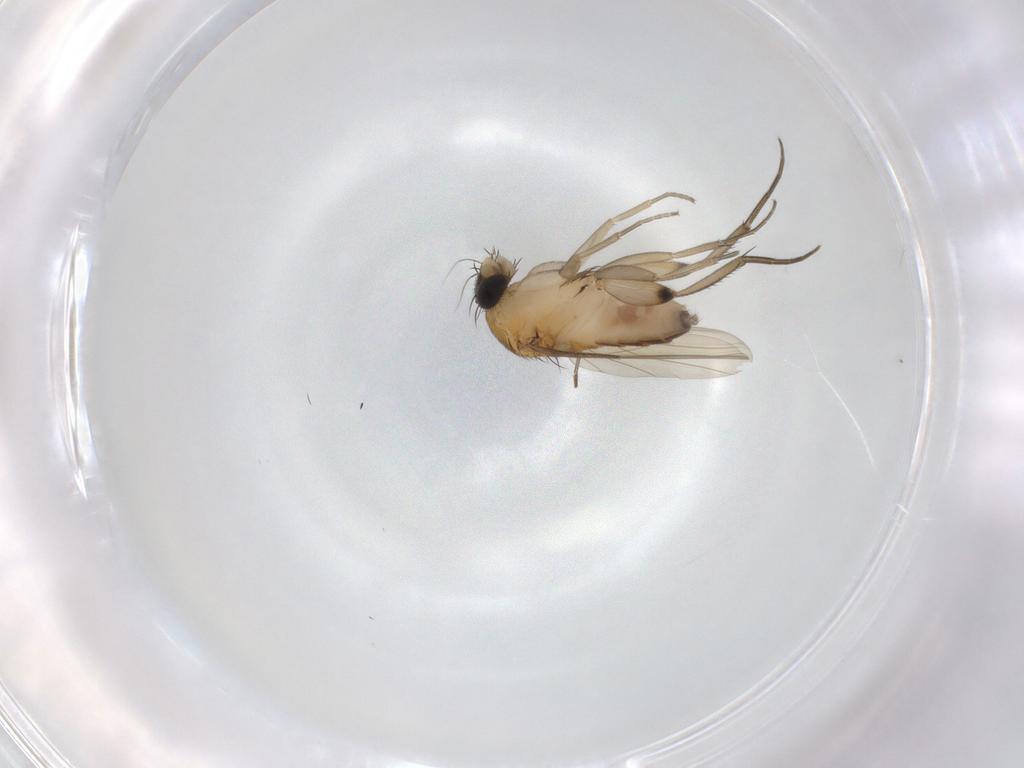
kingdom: Animalia
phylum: Arthropoda
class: Insecta
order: Diptera
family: Phoridae
